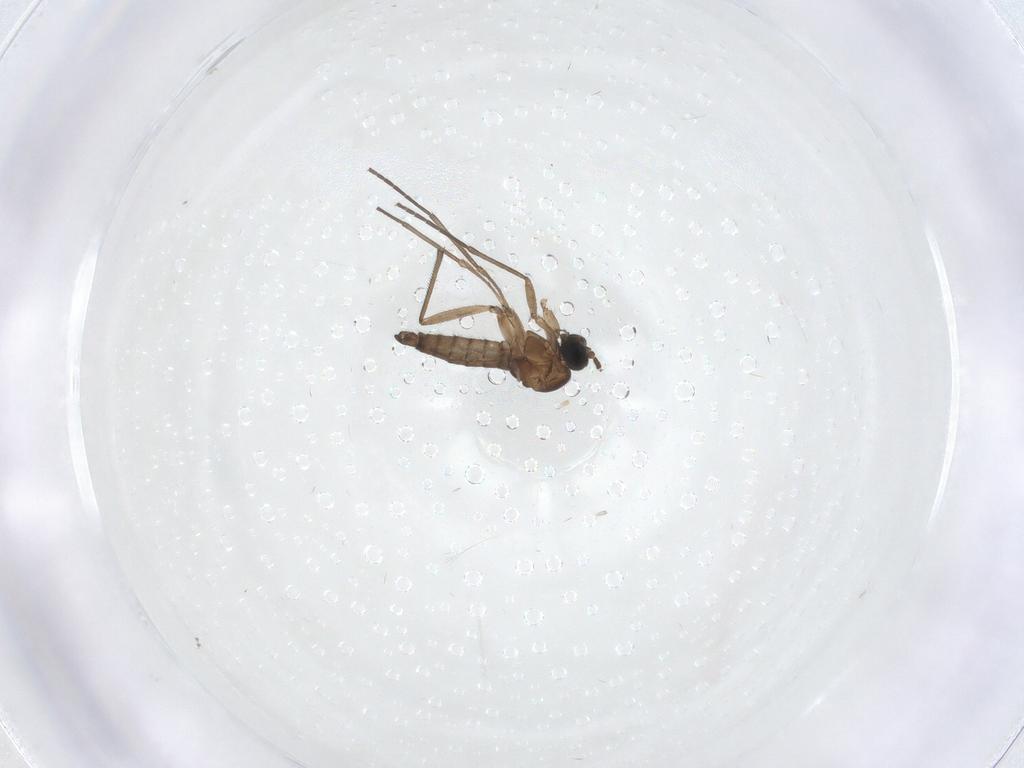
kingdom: Animalia
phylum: Arthropoda
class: Insecta
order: Diptera
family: Sciaridae
